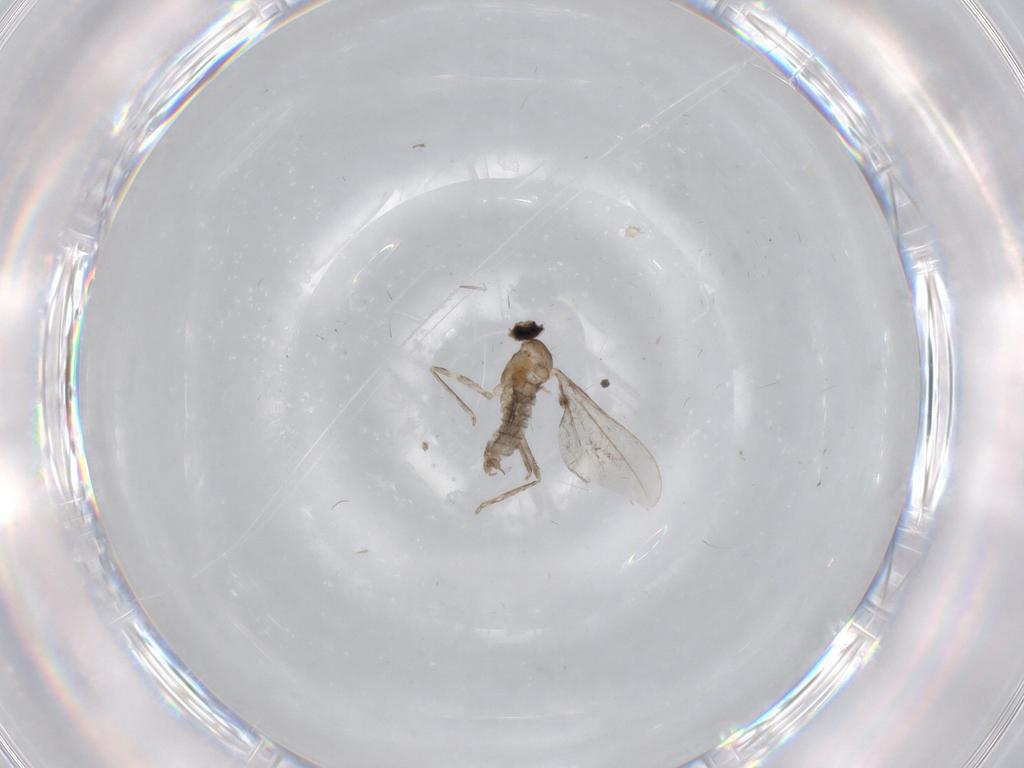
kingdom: Animalia
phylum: Arthropoda
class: Insecta
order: Diptera
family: Cecidomyiidae
